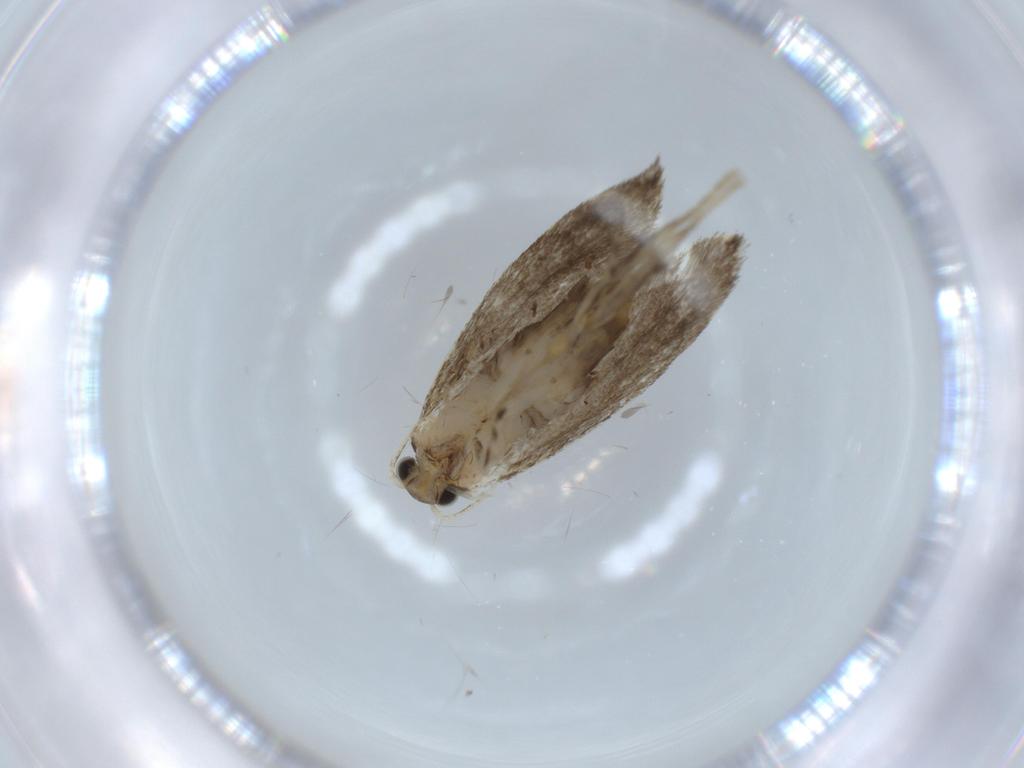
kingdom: Animalia
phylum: Arthropoda
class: Insecta
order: Lepidoptera
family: Tineidae
